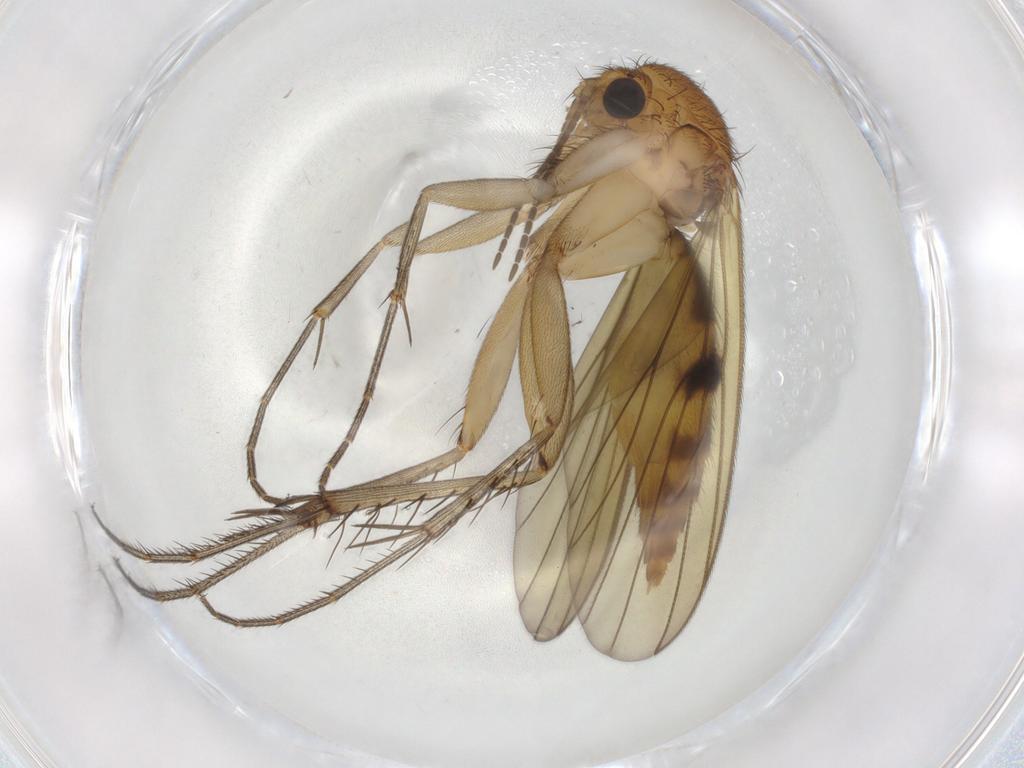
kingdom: Animalia
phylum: Arthropoda
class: Insecta
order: Diptera
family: Mycetophilidae
